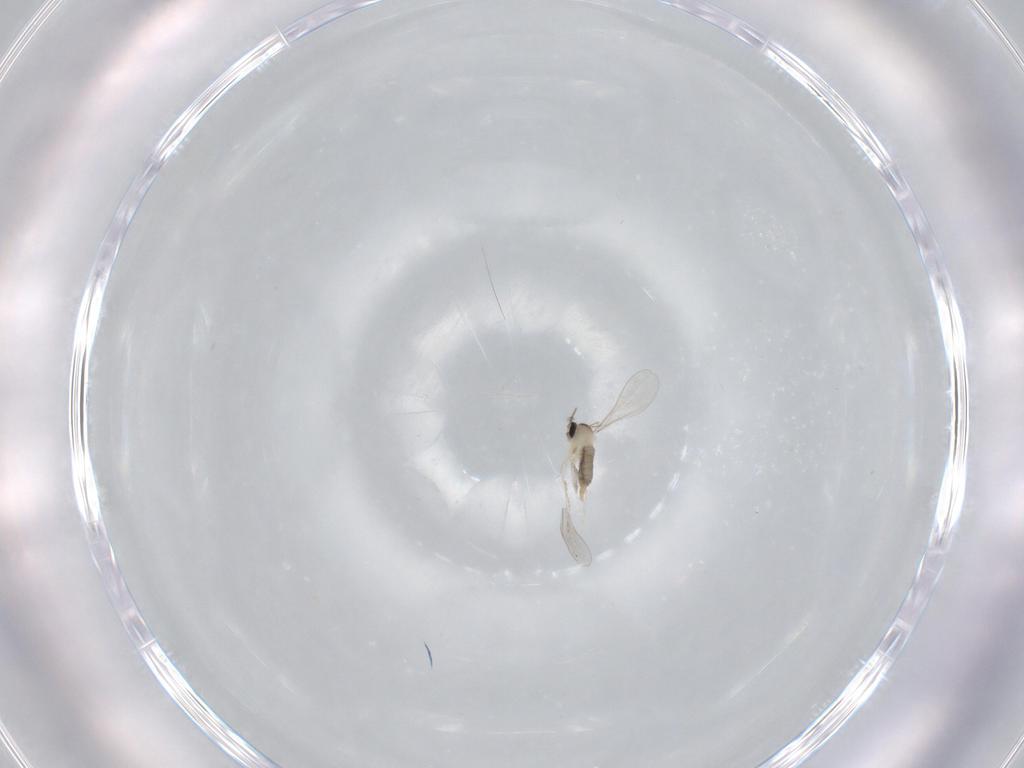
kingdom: Animalia
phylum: Arthropoda
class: Insecta
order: Diptera
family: Cecidomyiidae
